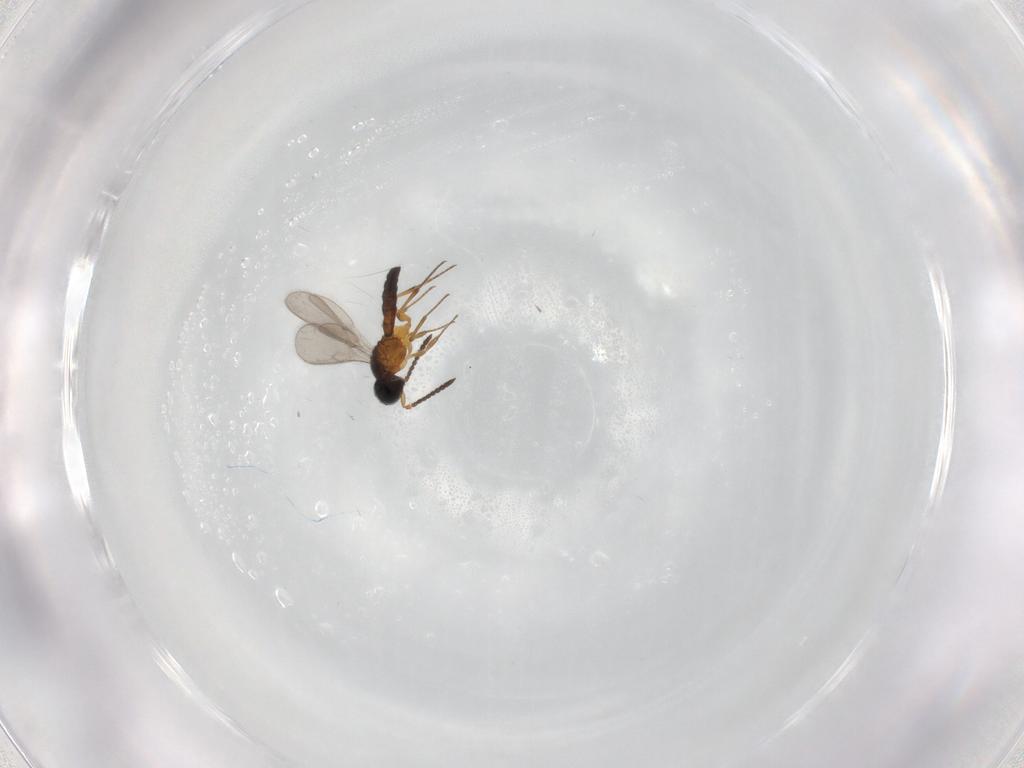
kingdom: Animalia
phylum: Arthropoda
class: Insecta
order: Hymenoptera
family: Scelionidae
